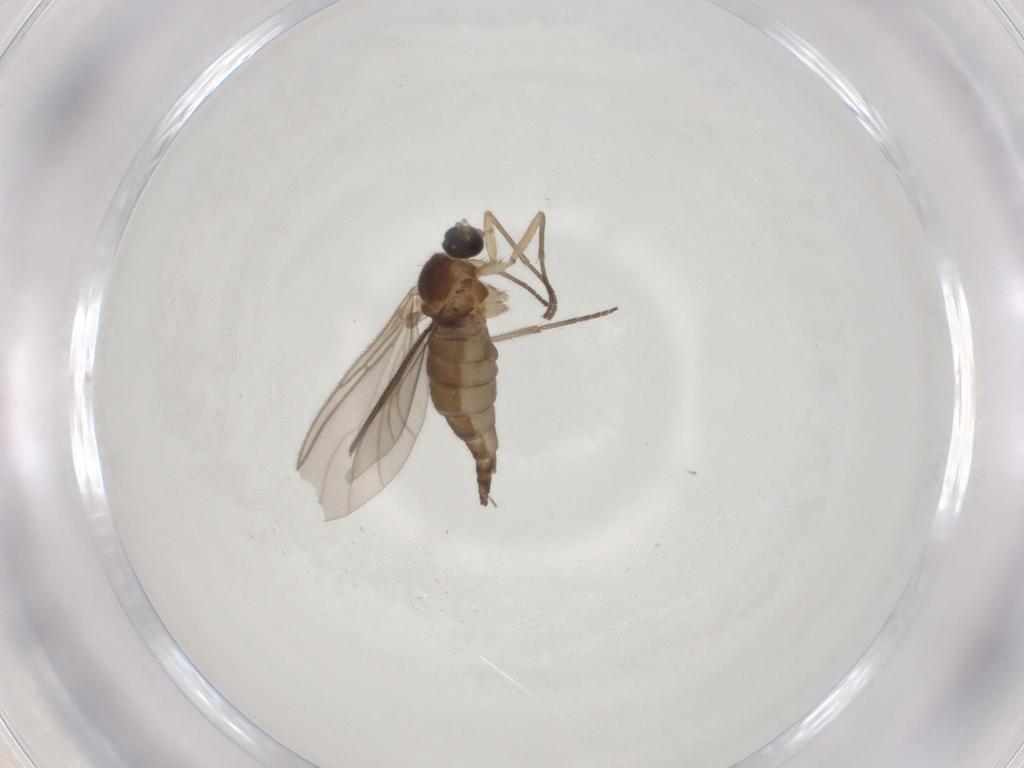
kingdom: Animalia
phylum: Arthropoda
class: Insecta
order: Diptera
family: Sciaridae
